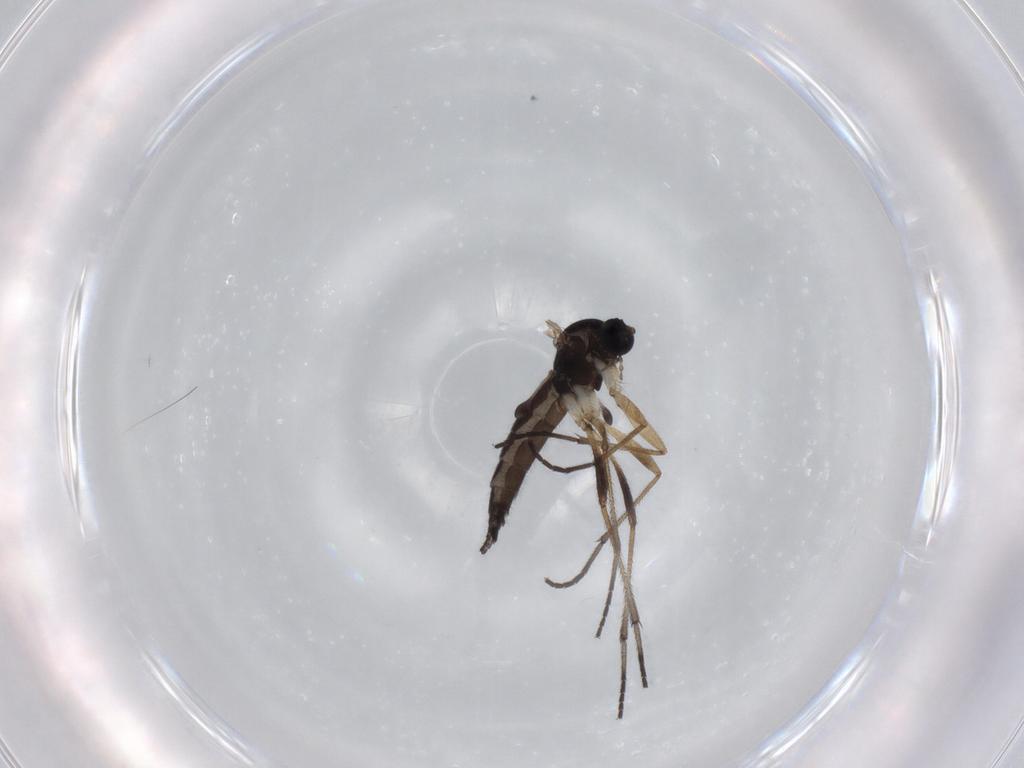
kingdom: Animalia
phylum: Arthropoda
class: Insecta
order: Diptera
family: Sciaridae
